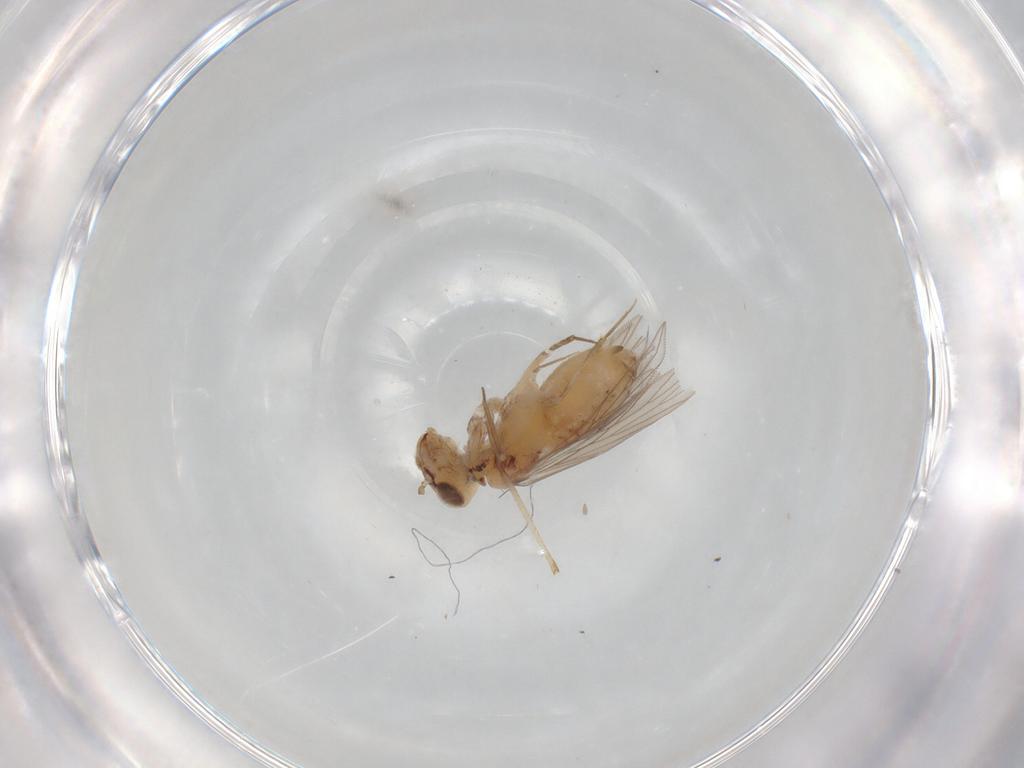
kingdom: Animalia
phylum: Arthropoda
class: Insecta
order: Psocodea
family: Lepidopsocidae
